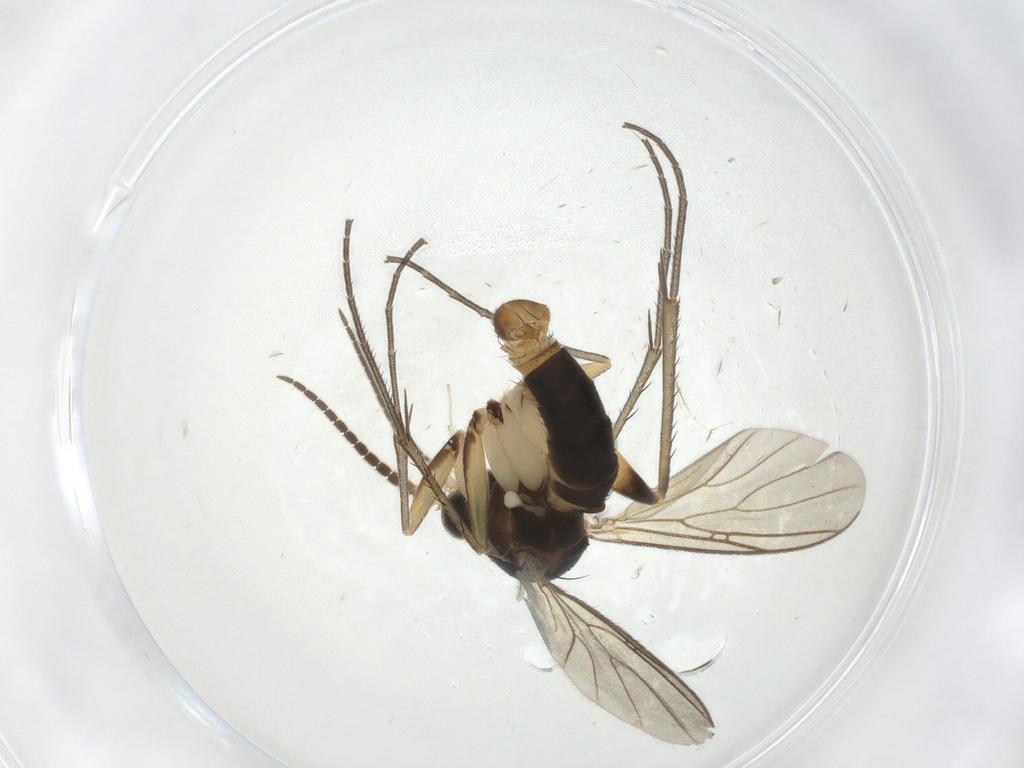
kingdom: Animalia
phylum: Arthropoda
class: Insecta
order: Diptera
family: Mycetophilidae
